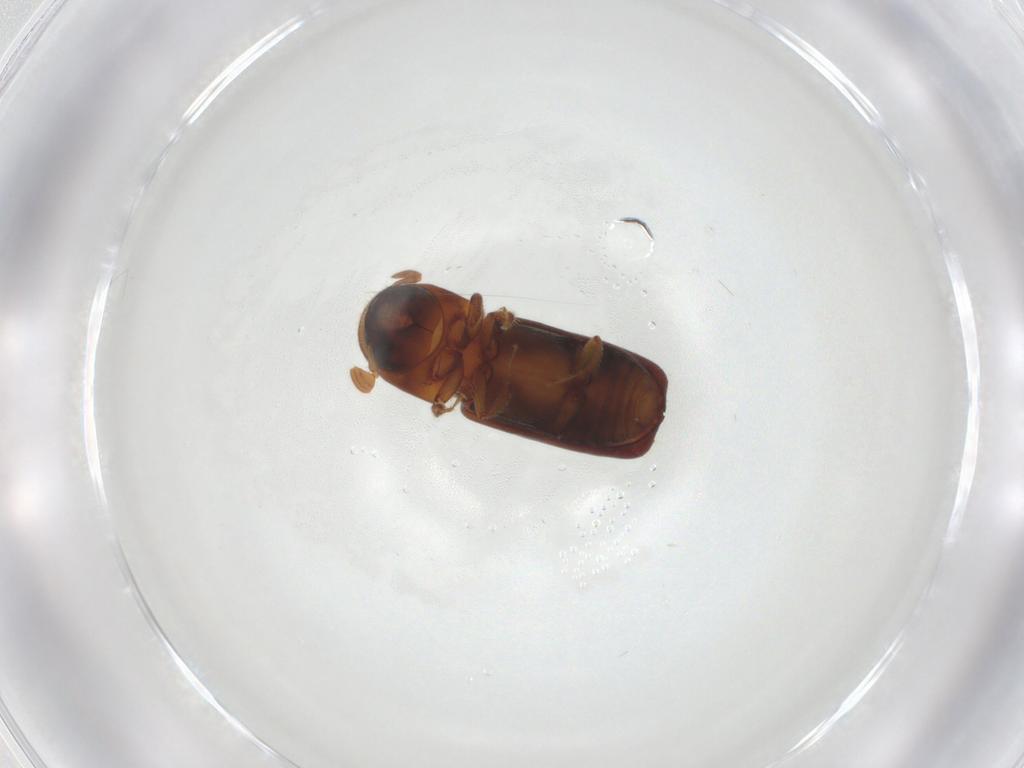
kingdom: Animalia
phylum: Arthropoda
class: Insecta
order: Coleoptera
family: Curculionidae
